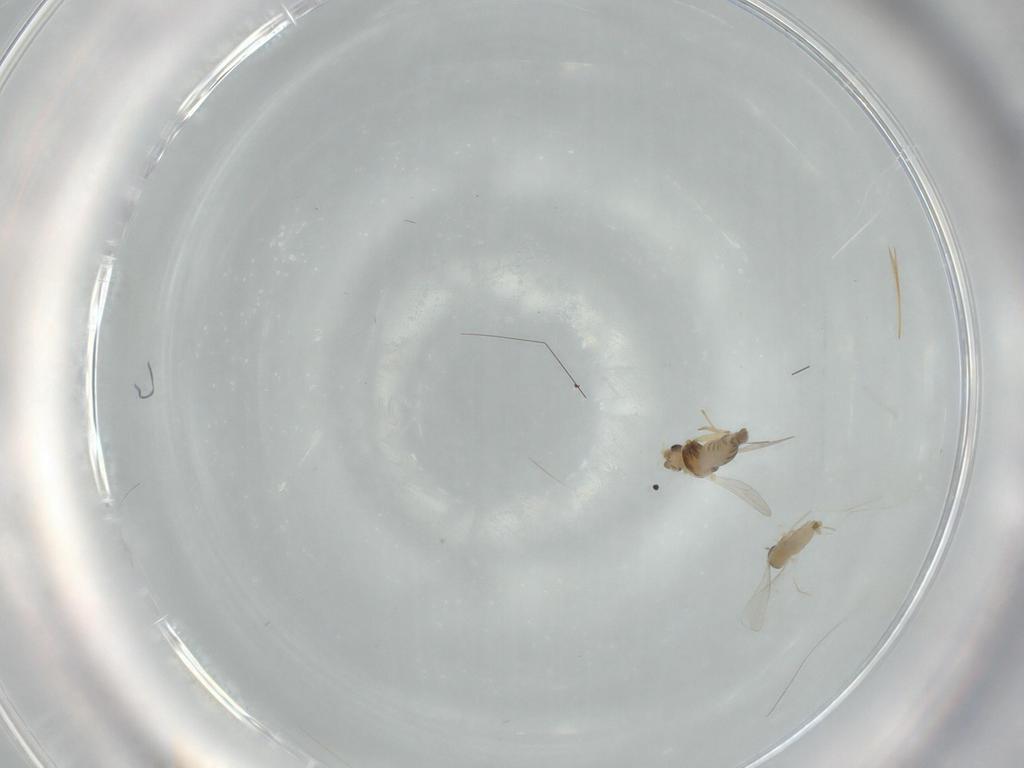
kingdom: Animalia
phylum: Arthropoda
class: Insecta
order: Diptera
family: Chironomidae
